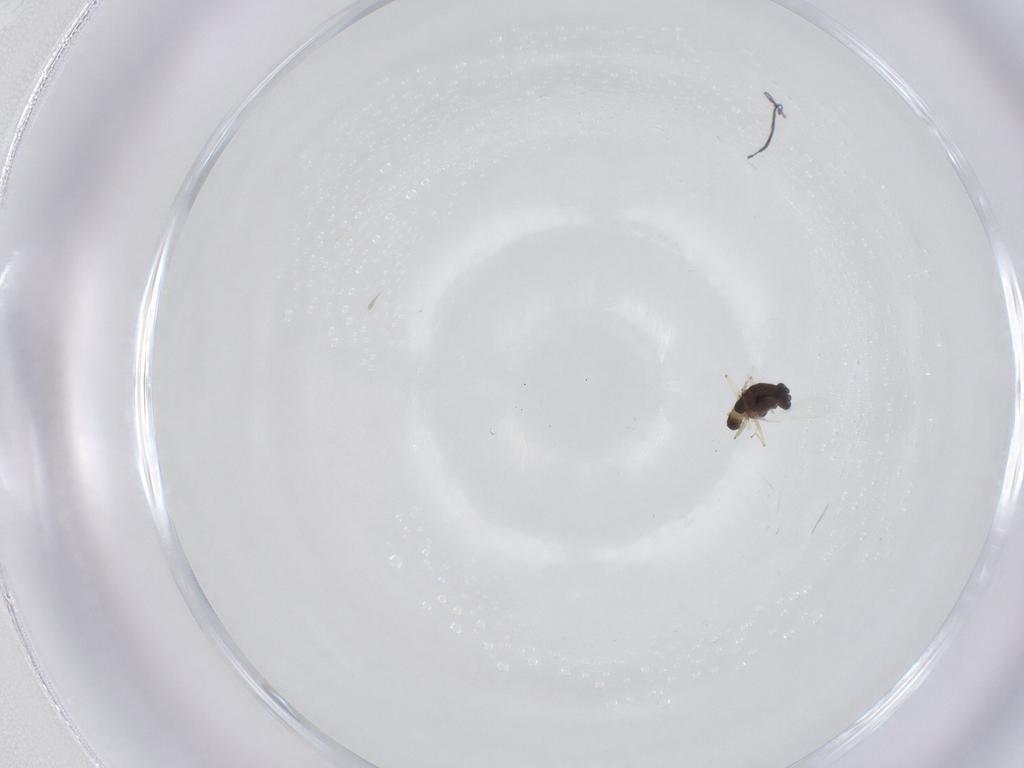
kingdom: Animalia
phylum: Arthropoda
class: Insecta
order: Diptera
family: Chironomidae
